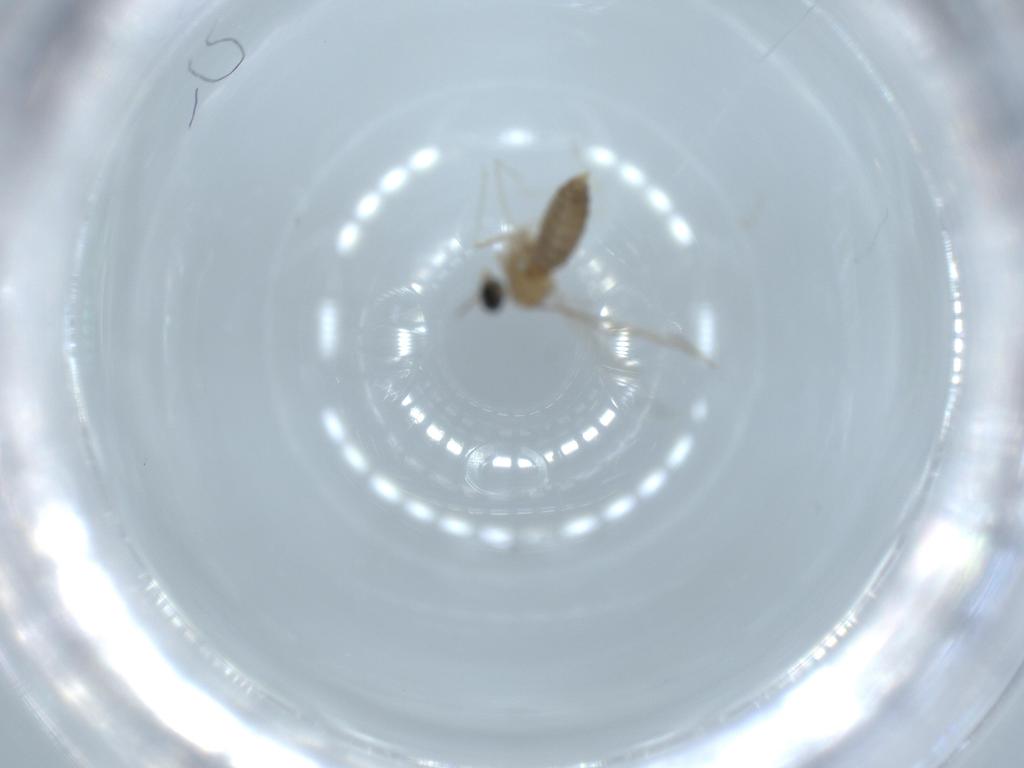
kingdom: Animalia
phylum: Arthropoda
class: Insecta
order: Diptera
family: Cecidomyiidae
